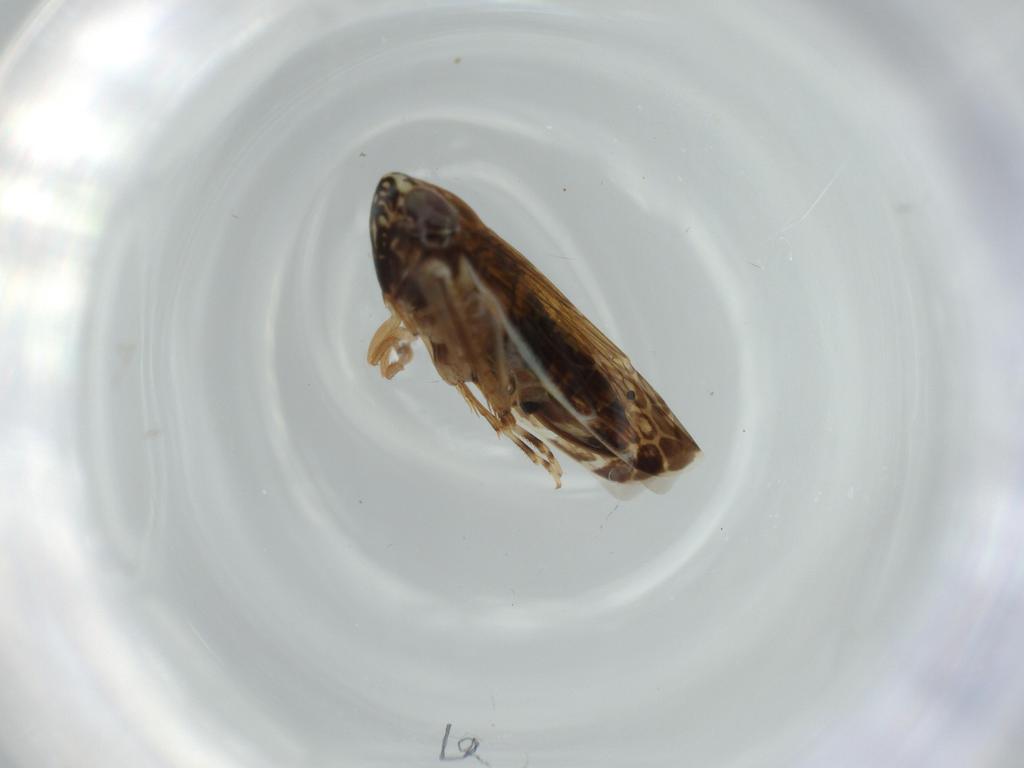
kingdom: Animalia
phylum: Arthropoda
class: Insecta
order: Hemiptera
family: Cicadellidae
